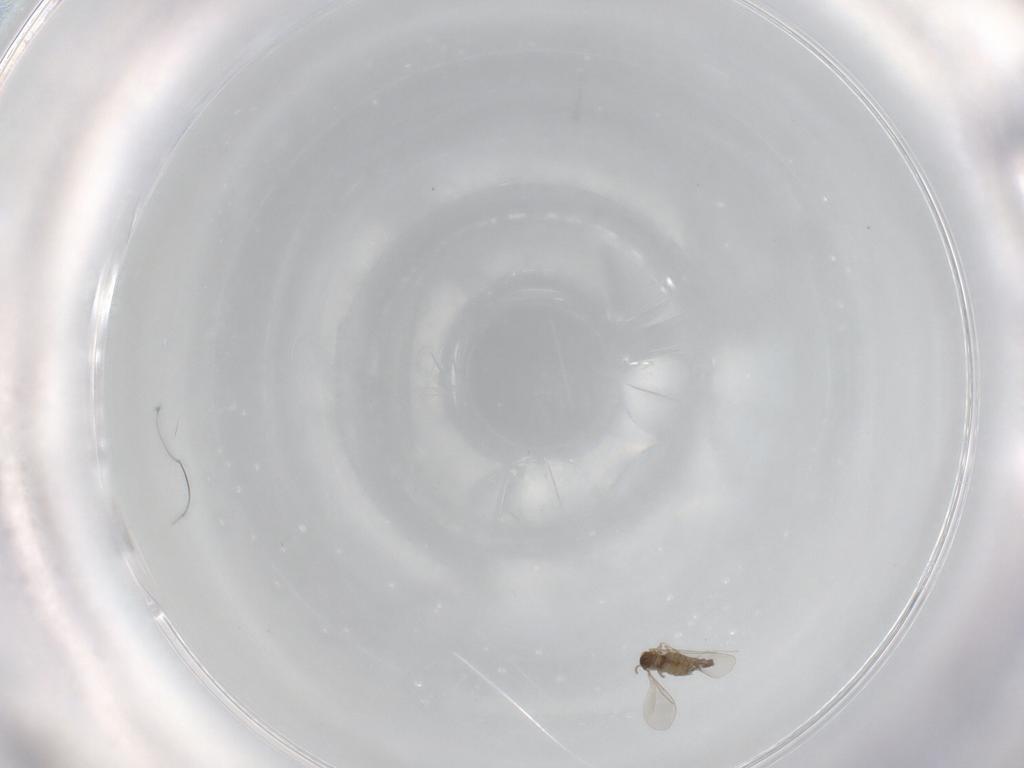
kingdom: Animalia
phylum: Arthropoda
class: Insecta
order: Diptera
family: Cecidomyiidae
